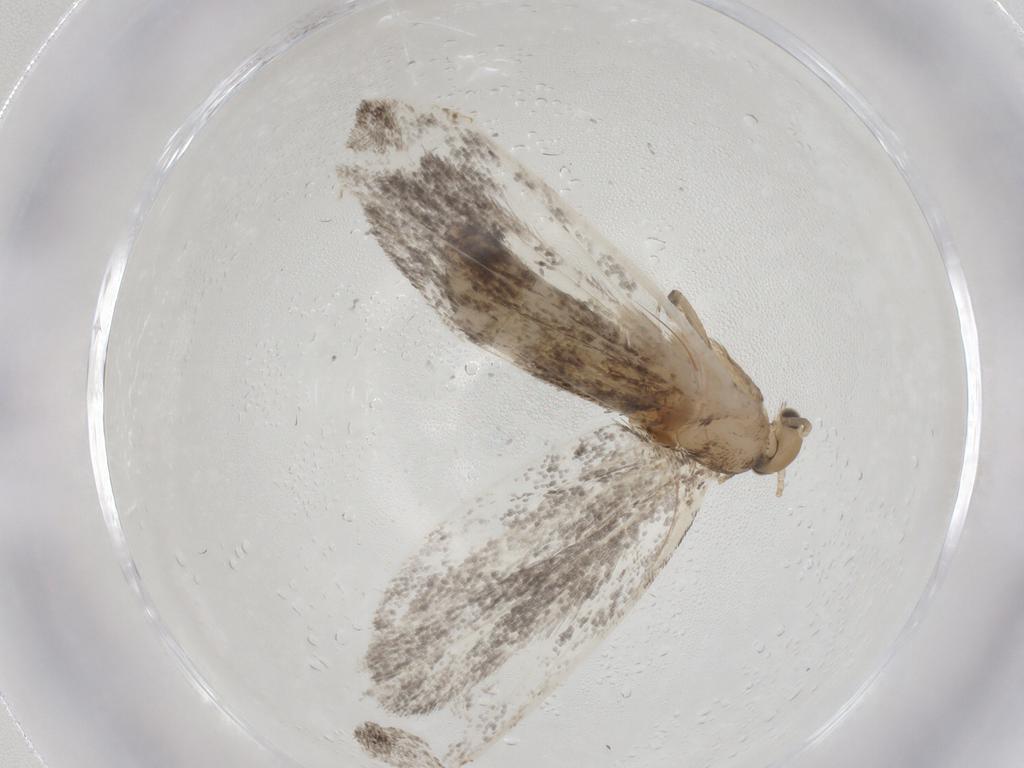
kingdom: Animalia
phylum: Arthropoda
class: Insecta
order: Lepidoptera
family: Dryadaulidae
